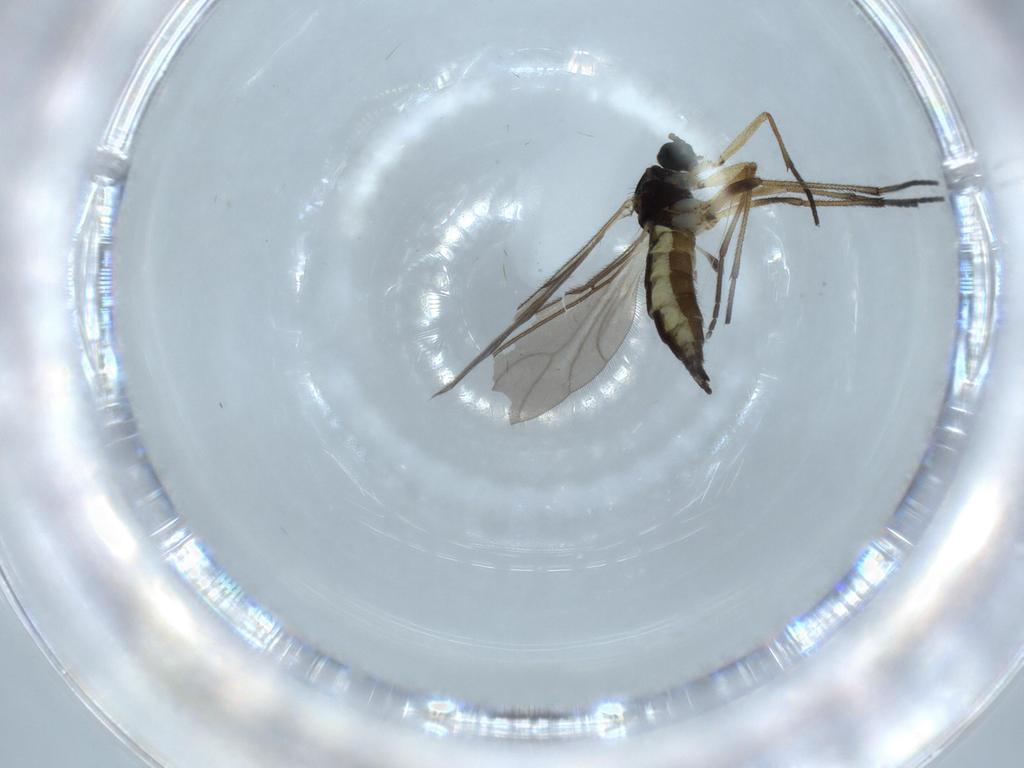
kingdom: Animalia
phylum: Arthropoda
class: Insecta
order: Diptera
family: Sciaridae
